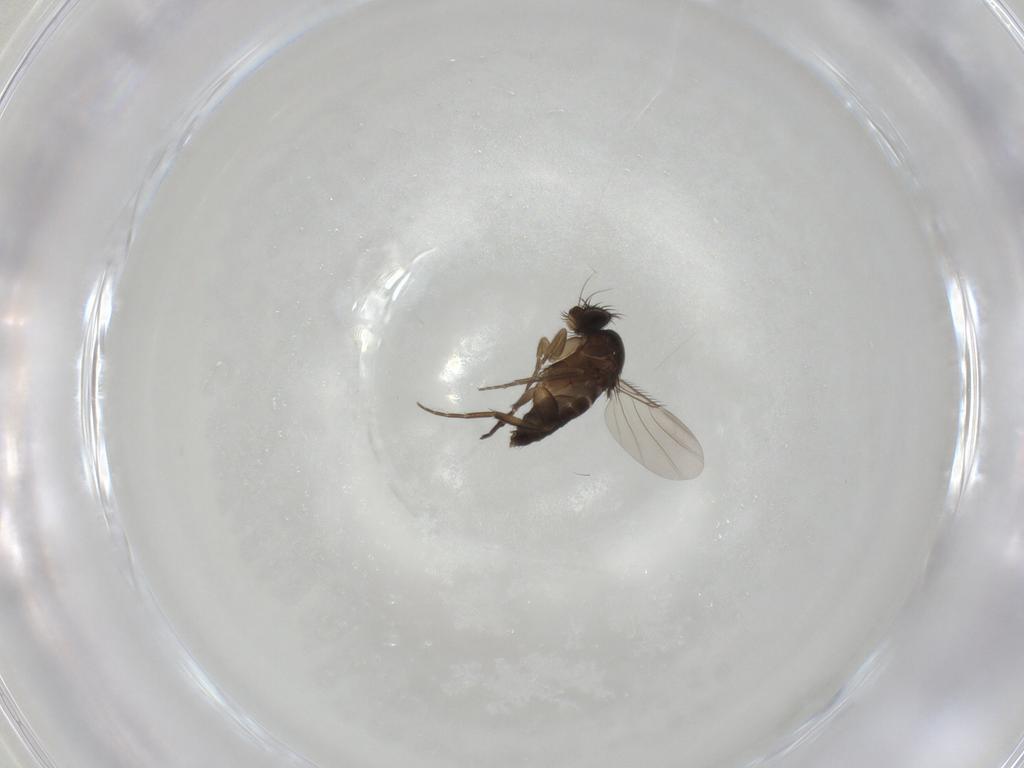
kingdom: Animalia
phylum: Arthropoda
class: Insecta
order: Diptera
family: Phoridae
